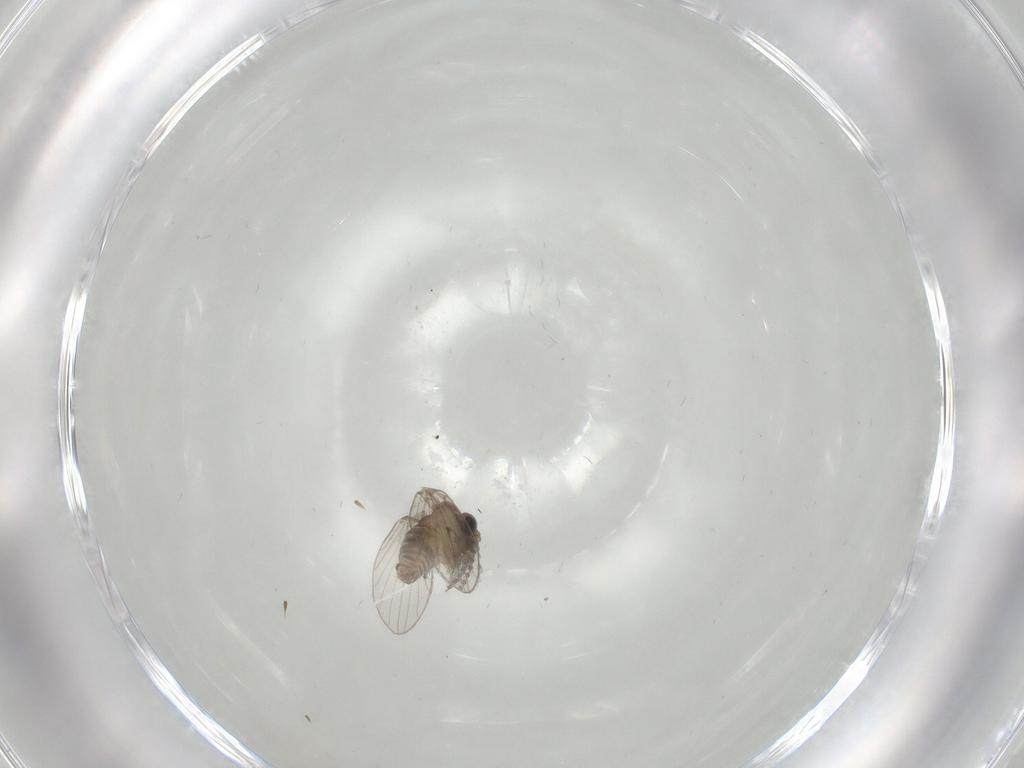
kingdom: Animalia
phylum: Arthropoda
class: Insecta
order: Diptera
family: Psychodidae
